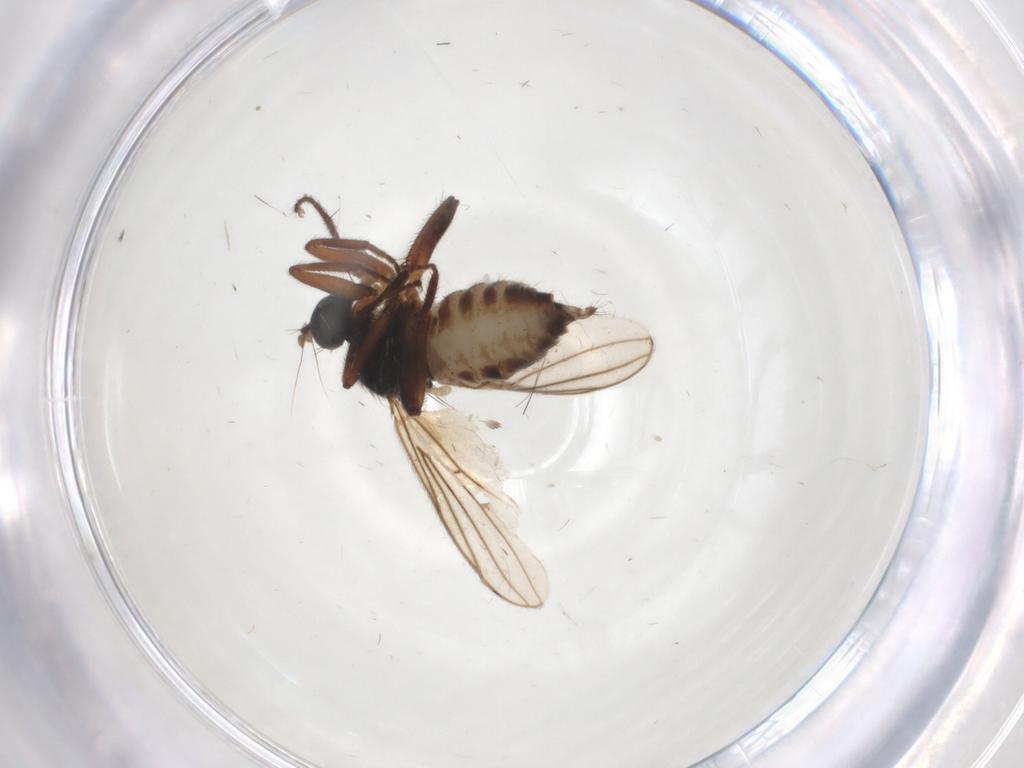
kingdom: Animalia
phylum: Arthropoda
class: Insecta
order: Diptera
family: Hybotidae
